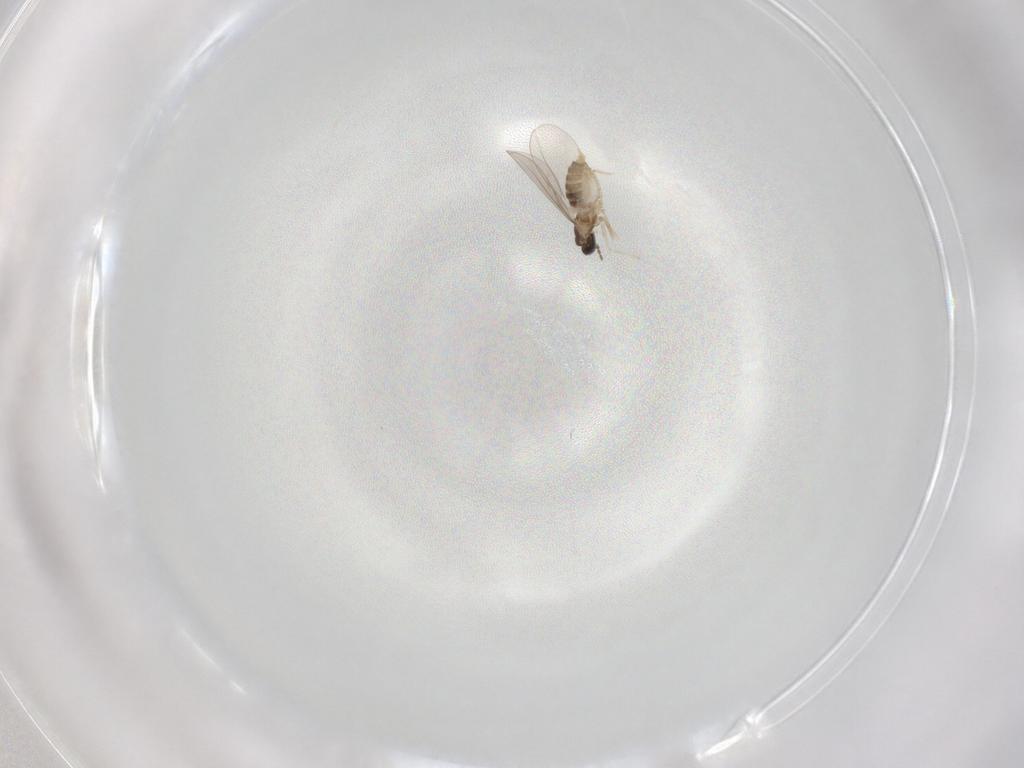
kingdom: Animalia
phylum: Arthropoda
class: Insecta
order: Diptera
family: Cecidomyiidae
